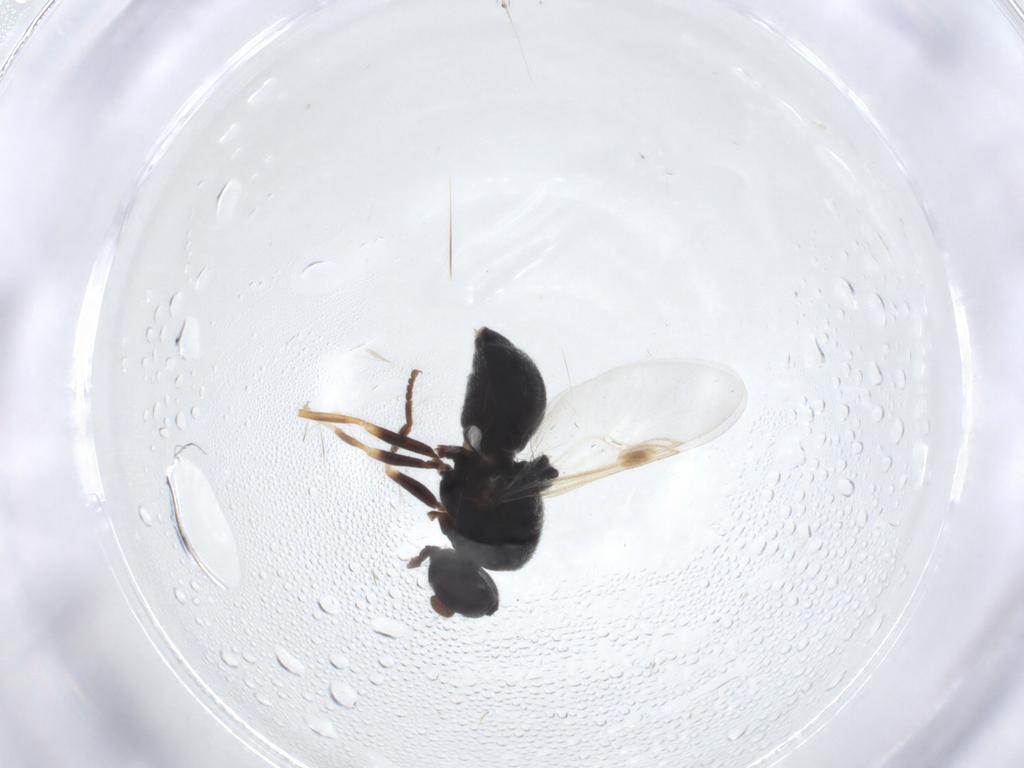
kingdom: Animalia
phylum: Arthropoda
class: Insecta
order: Diptera
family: Stratiomyidae
